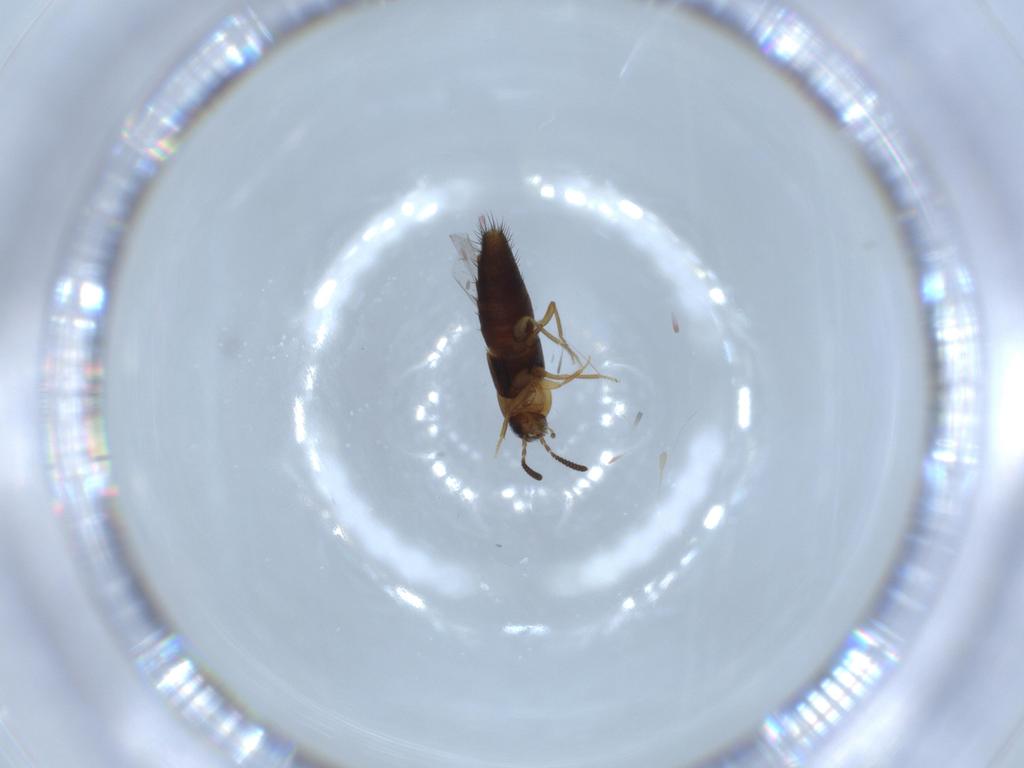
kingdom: Animalia
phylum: Arthropoda
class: Insecta
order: Coleoptera
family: Staphylinidae
